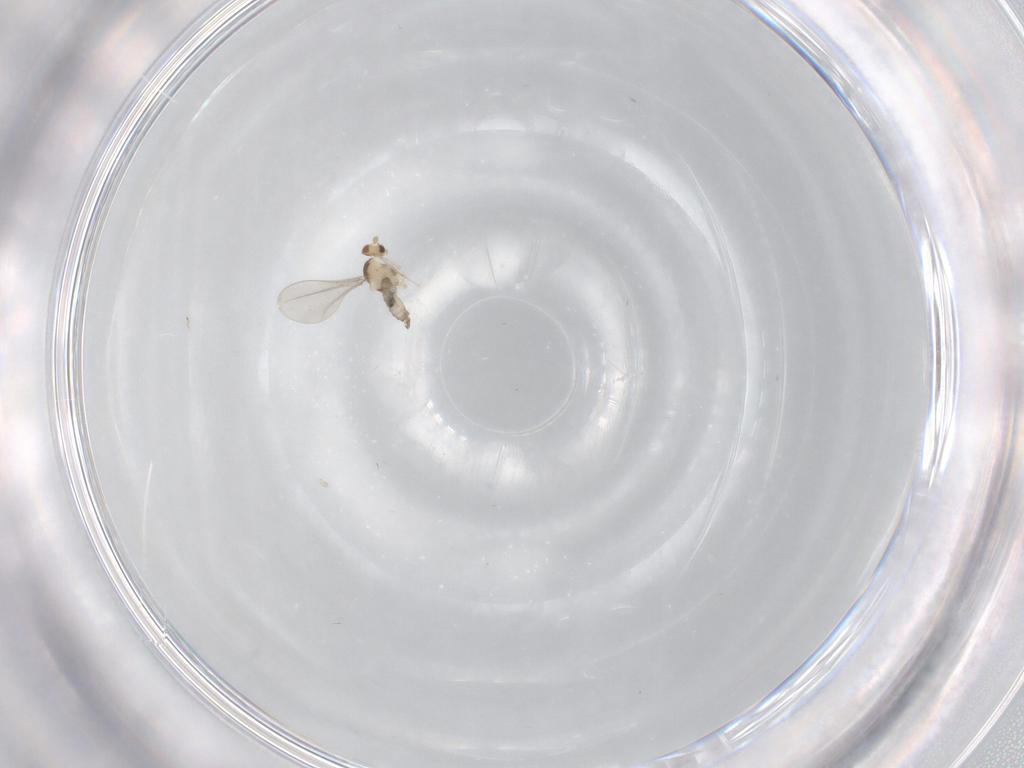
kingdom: Animalia
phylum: Arthropoda
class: Insecta
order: Diptera
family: Cecidomyiidae
